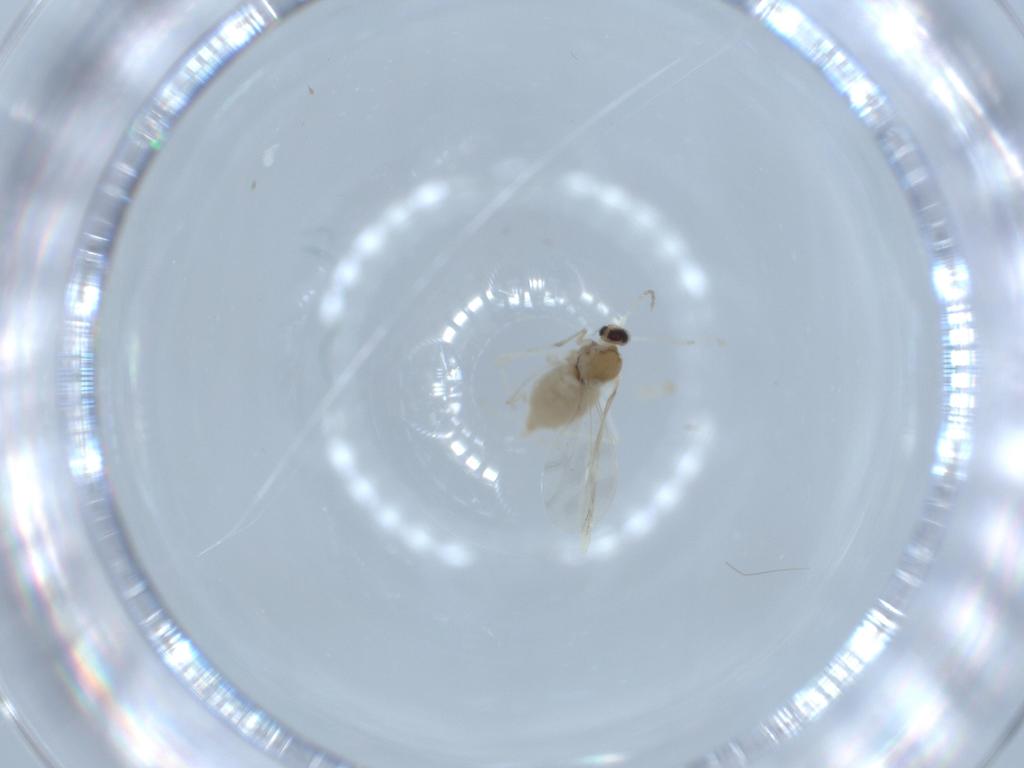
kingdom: Animalia
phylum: Arthropoda
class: Insecta
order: Diptera
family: Cecidomyiidae
